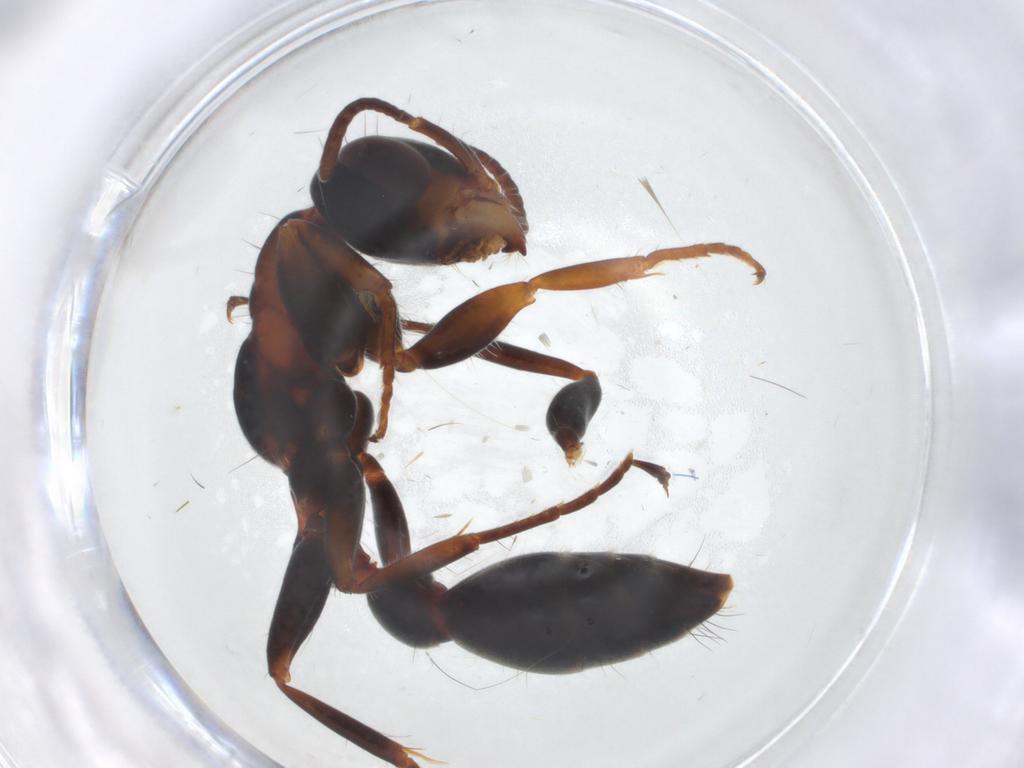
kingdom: Animalia
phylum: Arthropoda
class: Insecta
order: Hymenoptera
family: Formicidae
